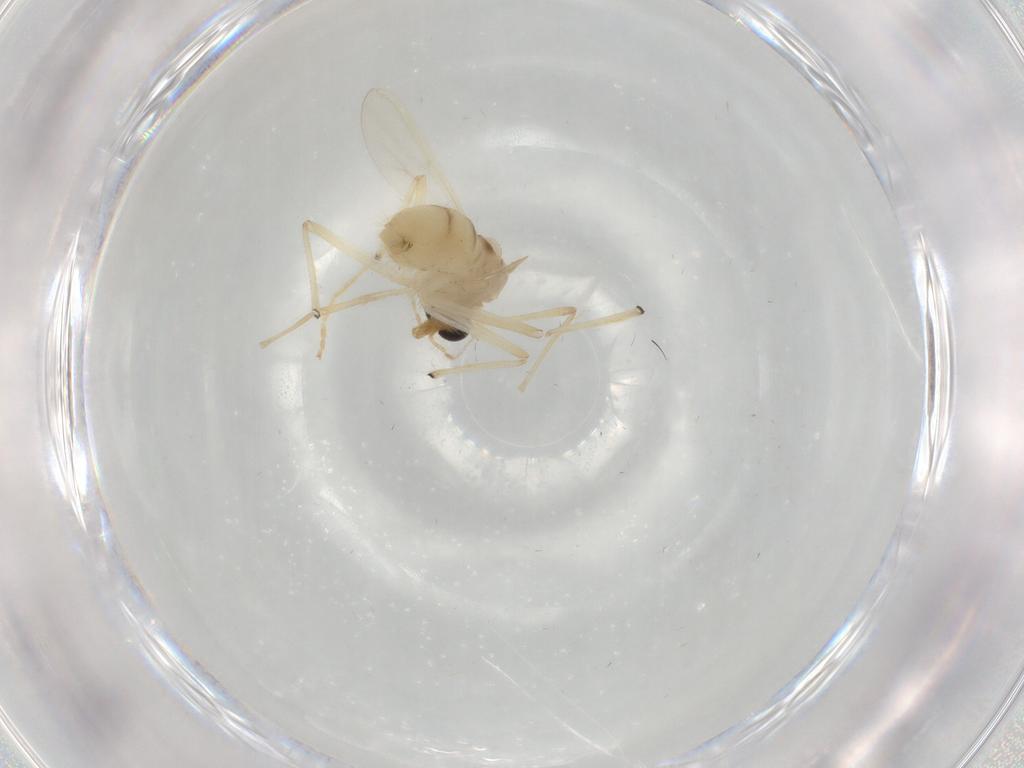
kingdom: Animalia
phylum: Arthropoda
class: Insecta
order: Diptera
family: Chironomidae
